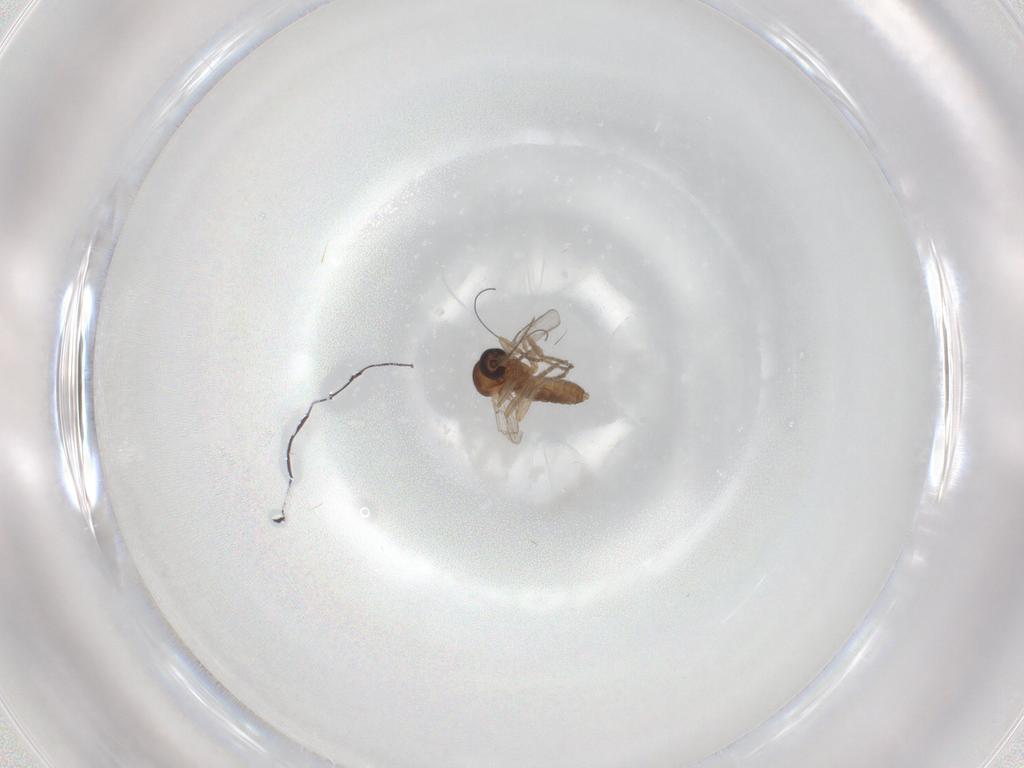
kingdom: Animalia
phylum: Arthropoda
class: Insecta
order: Diptera
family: Ceratopogonidae
